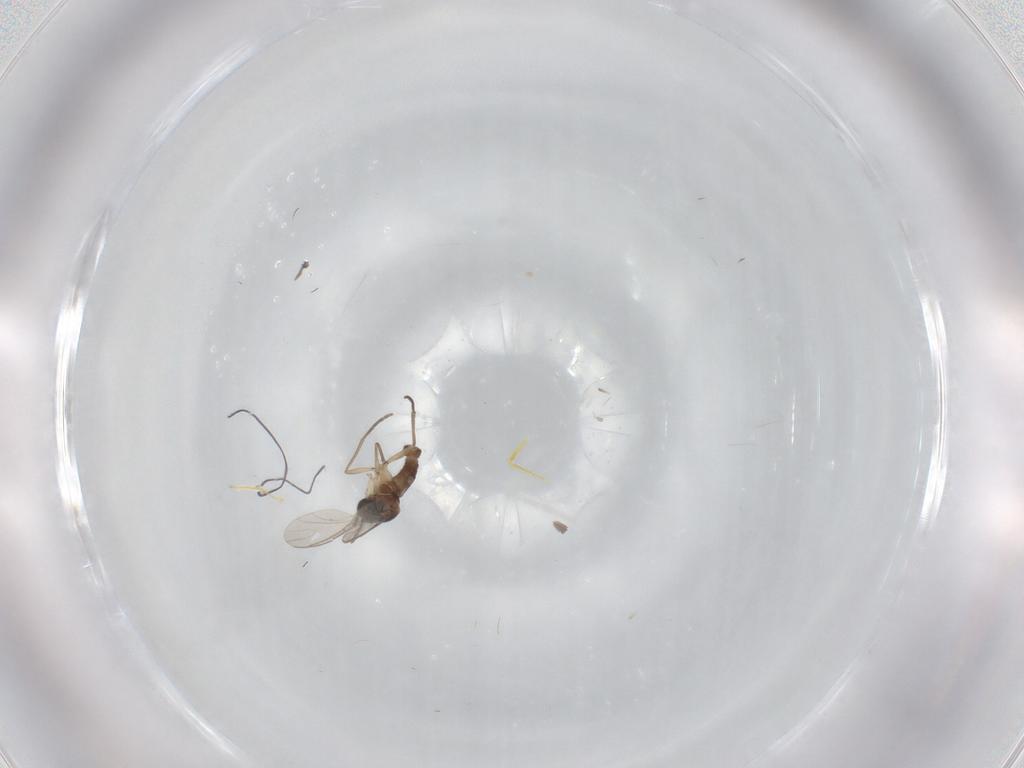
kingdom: Animalia
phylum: Arthropoda
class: Insecta
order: Diptera
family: Sciaridae
